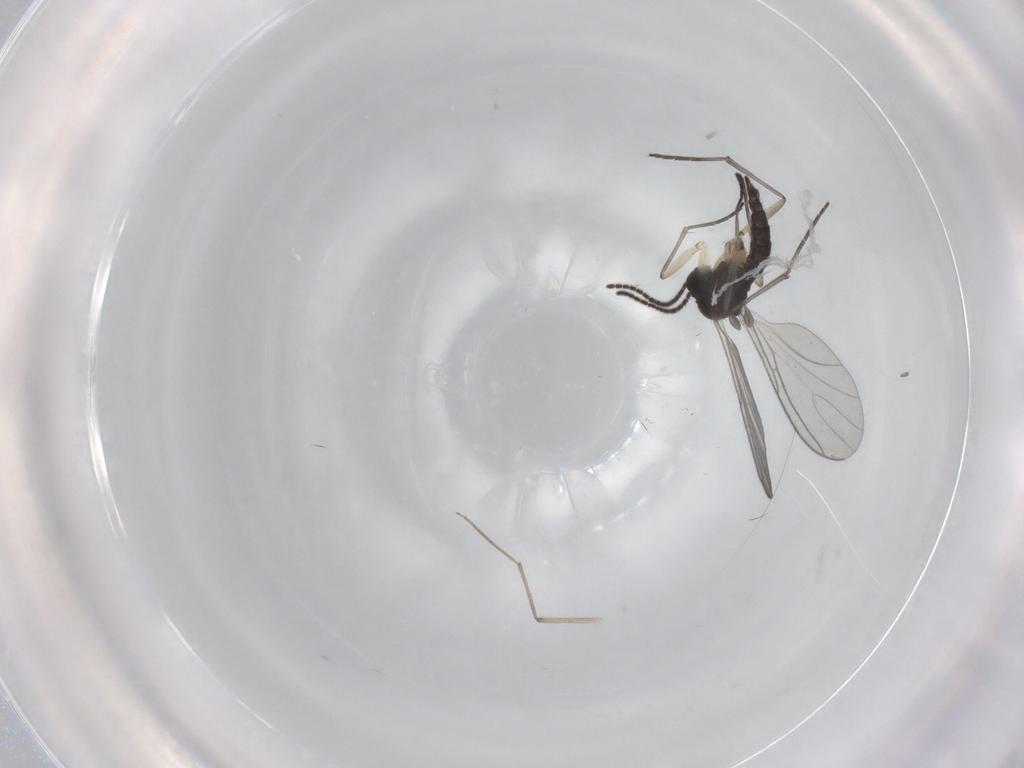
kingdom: Animalia
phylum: Arthropoda
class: Insecta
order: Diptera
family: Sciaridae
